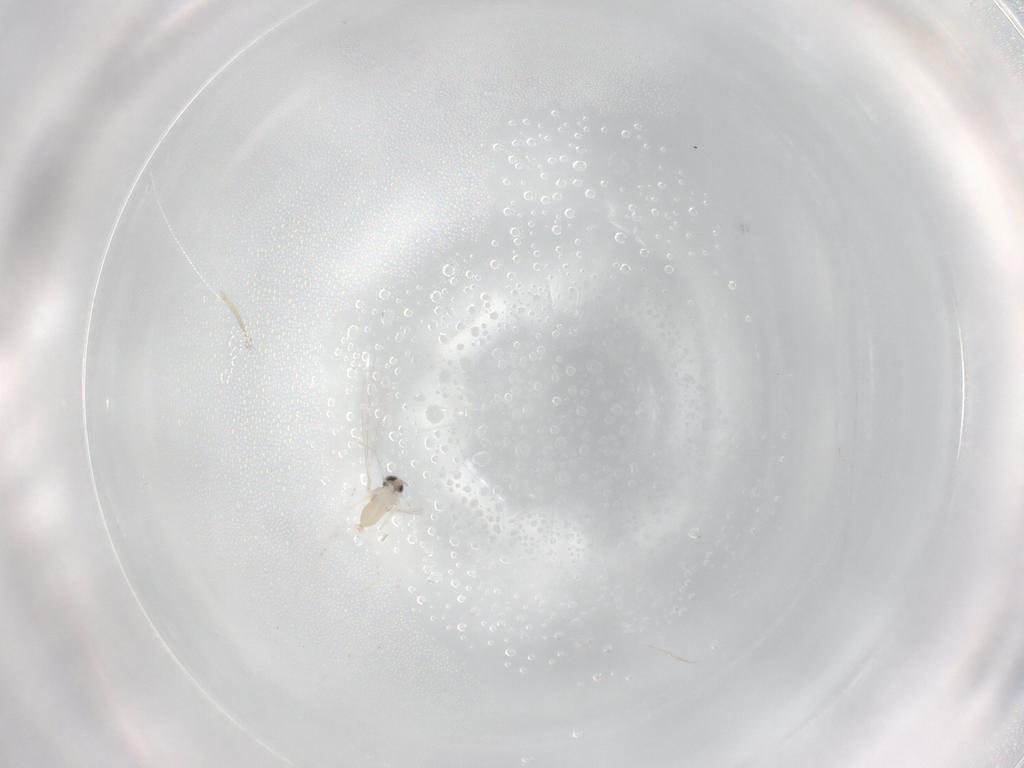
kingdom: Animalia
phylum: Arthropoda
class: Insecta
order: Diptera
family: Cecidomyiidae
